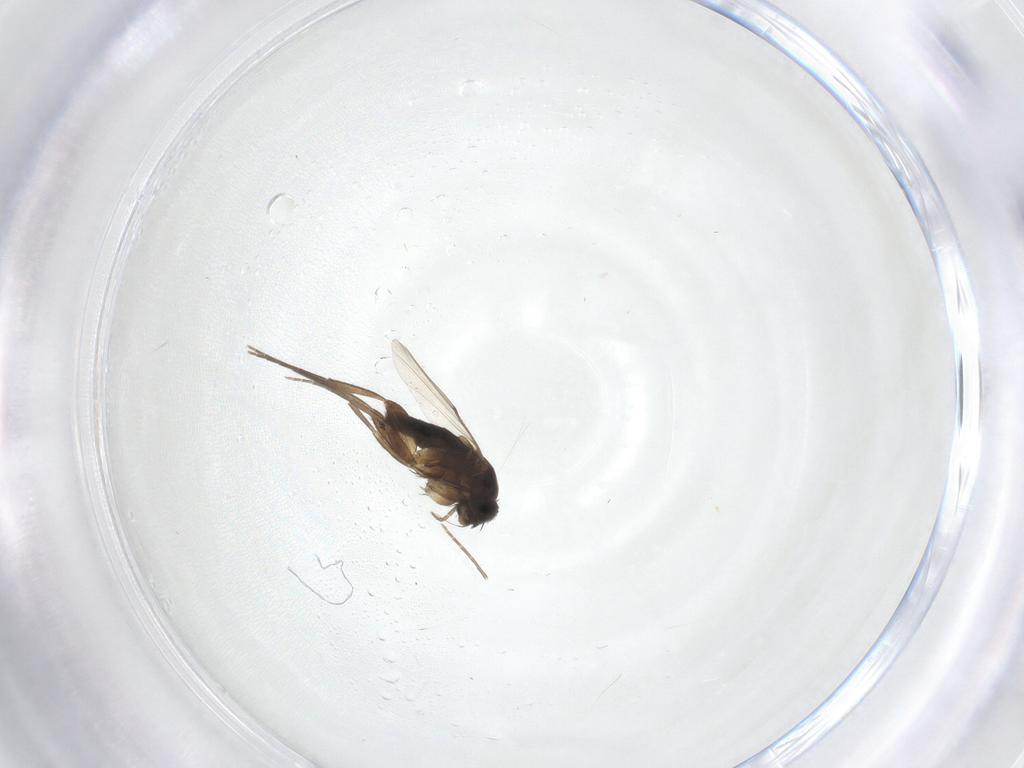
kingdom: Animalia
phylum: Arthropoda
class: Insecta
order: Diptera
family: Phoridae
